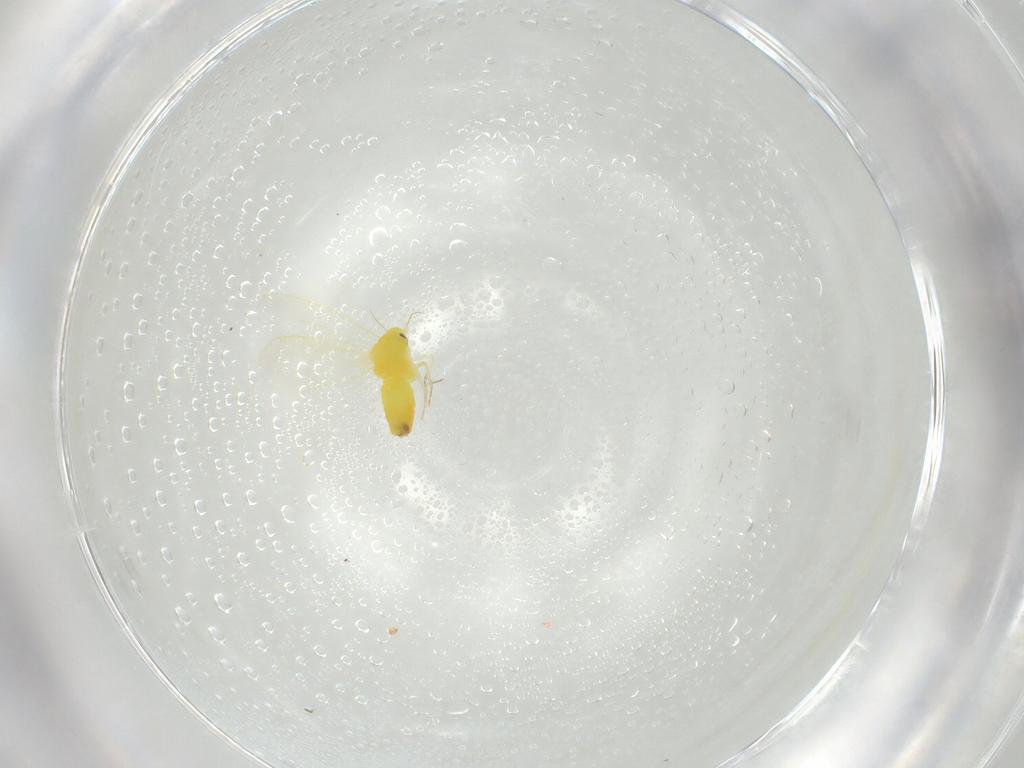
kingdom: Animalia
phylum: Arthropoda
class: Insecta
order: Hemiptera
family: Aleyrodidae
